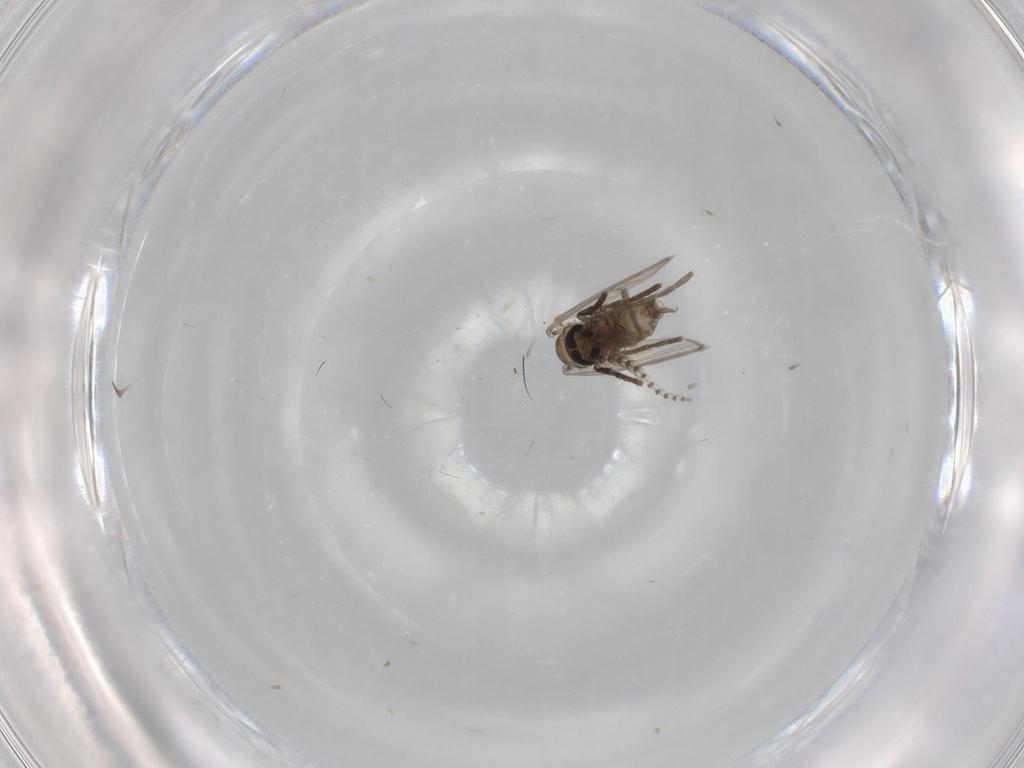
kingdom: Animalia
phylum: Arthropoda
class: Insecta
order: Diptera
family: Psychodidae
